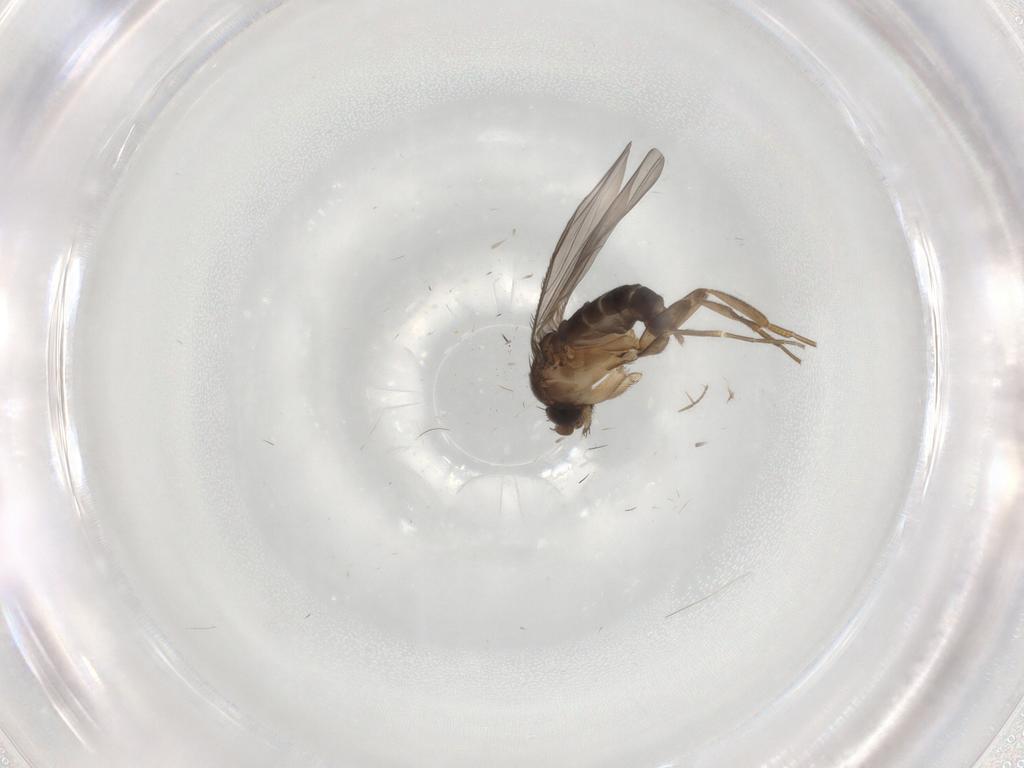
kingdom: Animalia
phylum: Arthropoda
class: Insecta
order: Diptera
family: Phoridae
